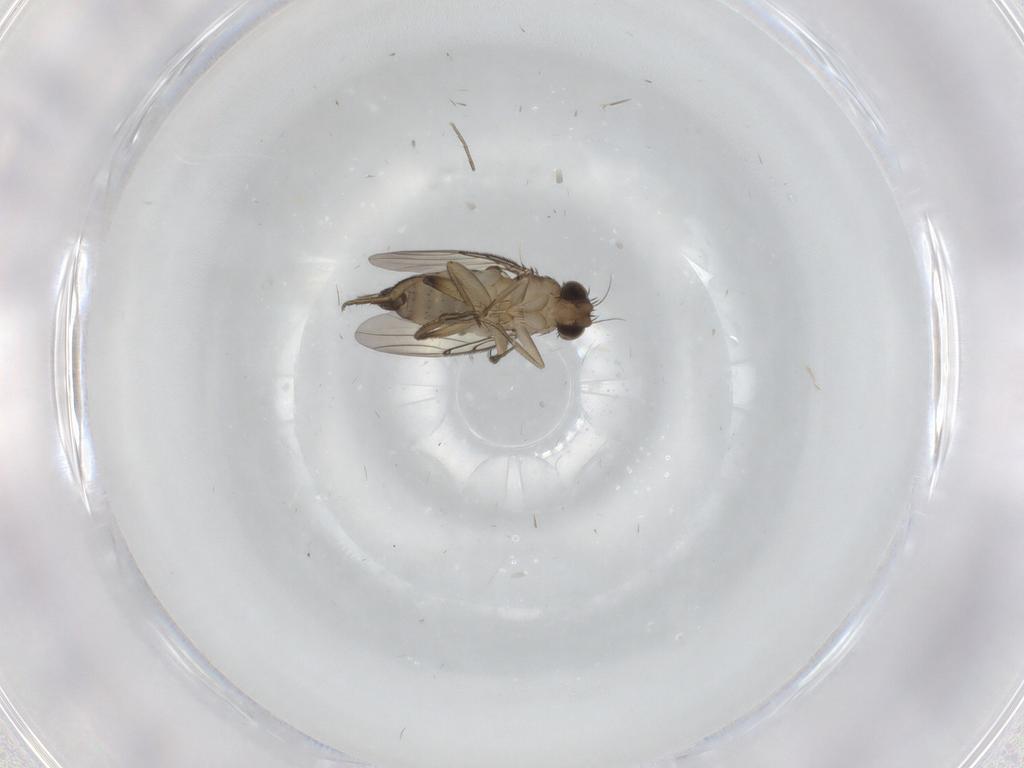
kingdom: Animalia
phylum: Arthropoda
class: Insecta
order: Diptera
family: Phoridae
